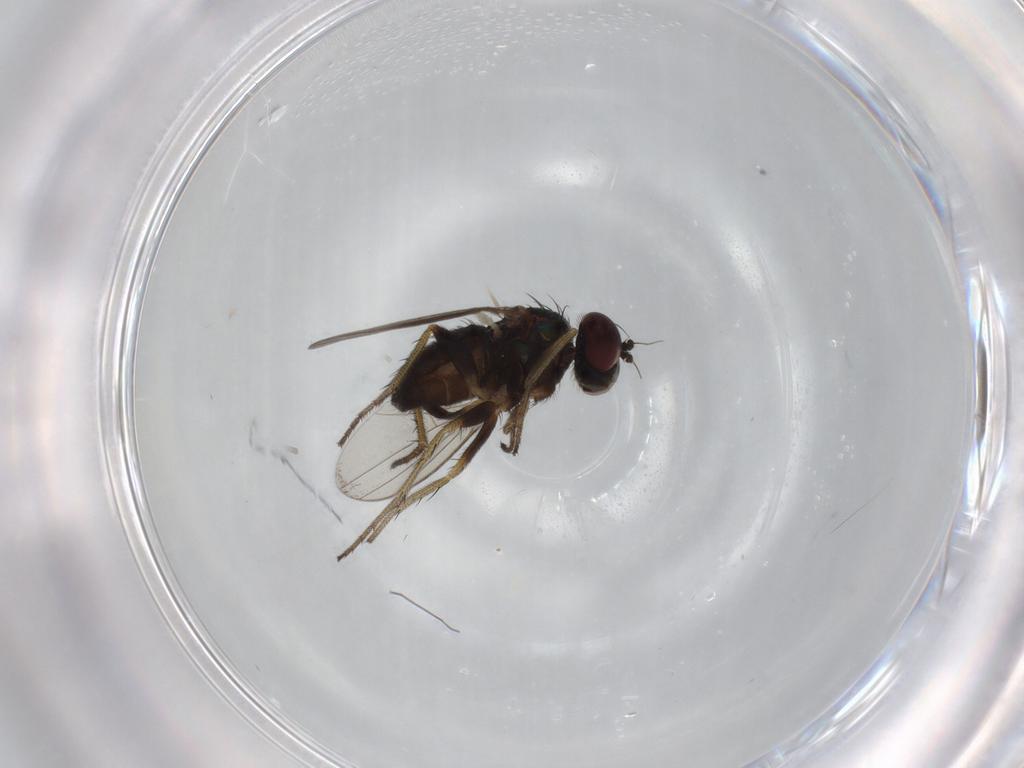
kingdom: Animalia
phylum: Arthropoda
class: Insecta
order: Diptera
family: Dolichopodidae
